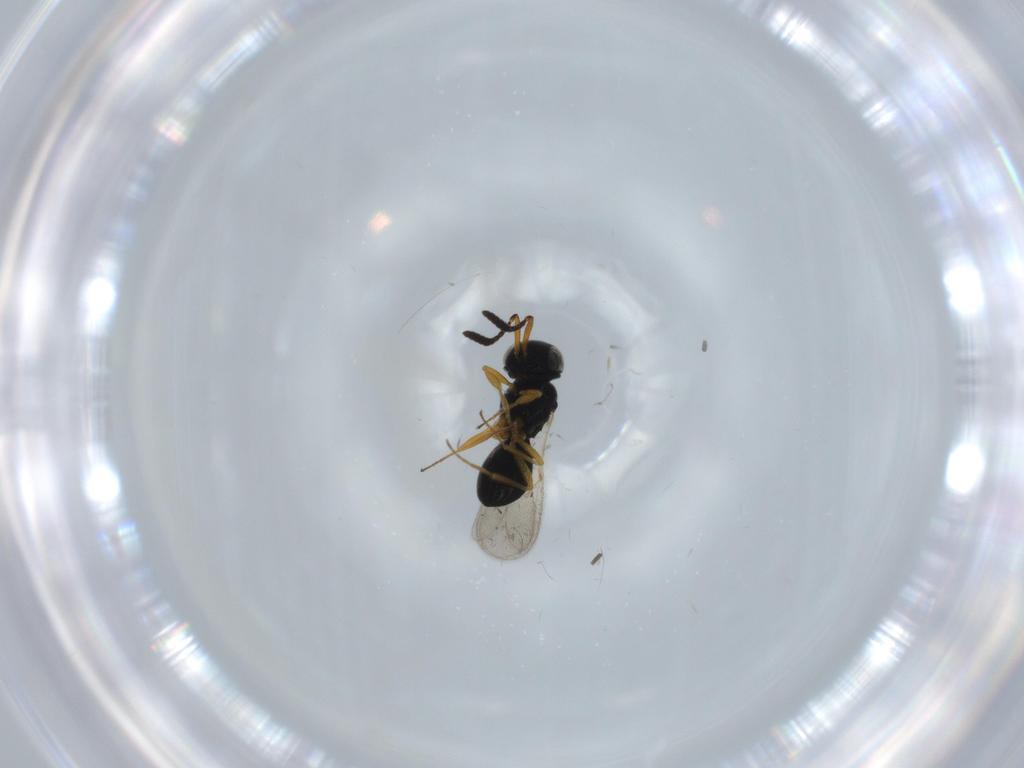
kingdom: Animalia
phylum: Arthropoda
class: Insecta
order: Hymenoptera
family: Scelionidae
